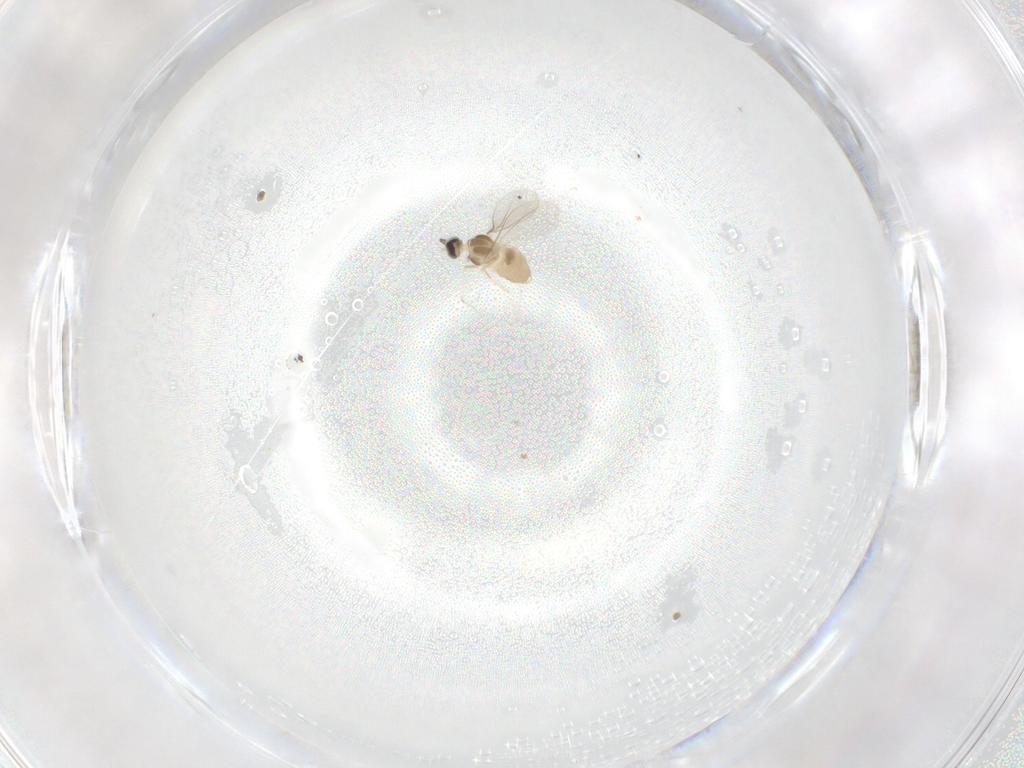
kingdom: Animalia
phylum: Arthropoda
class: Insecta
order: Diptera
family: Cecidomyiidae
